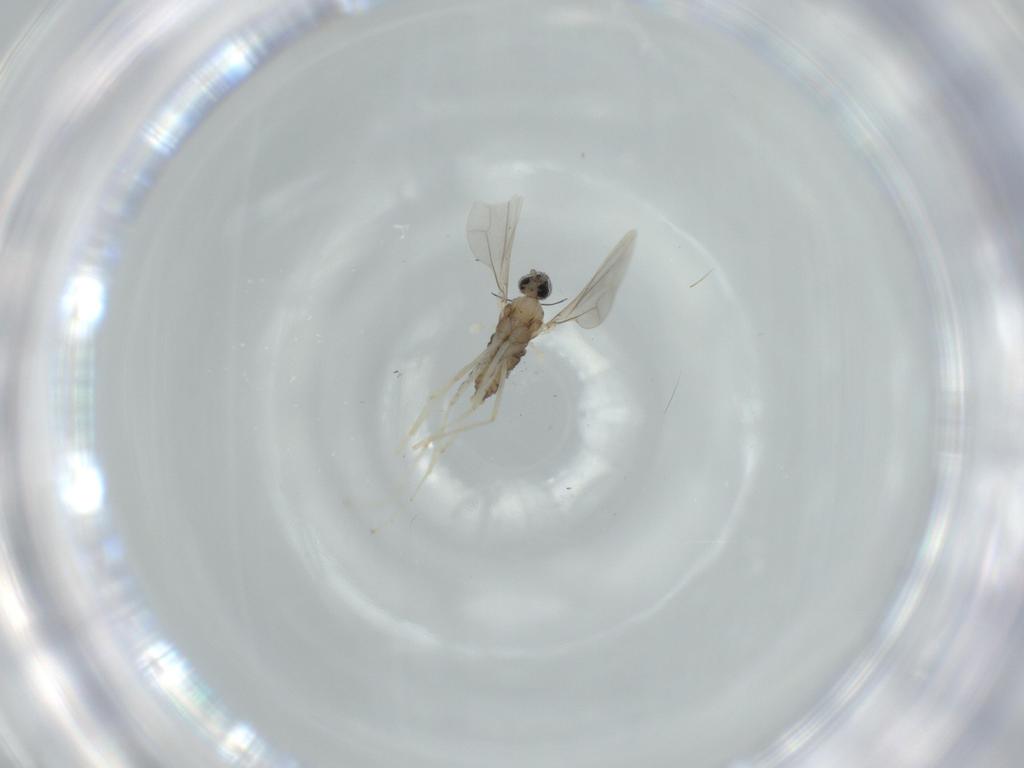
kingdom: Animalia
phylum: Arthropoda
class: Insecta
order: Diptera
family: Cecidomyiidae
